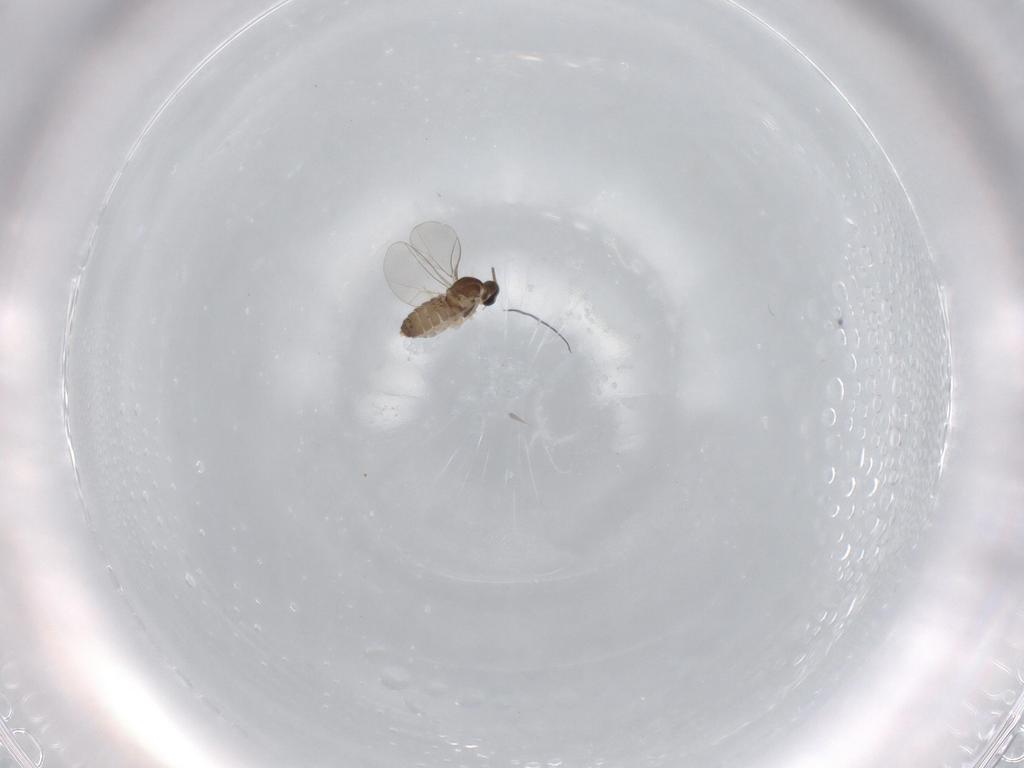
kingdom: Animalia
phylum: Arthropoda
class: Insecta
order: Diptera
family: Cecidomyiidae
